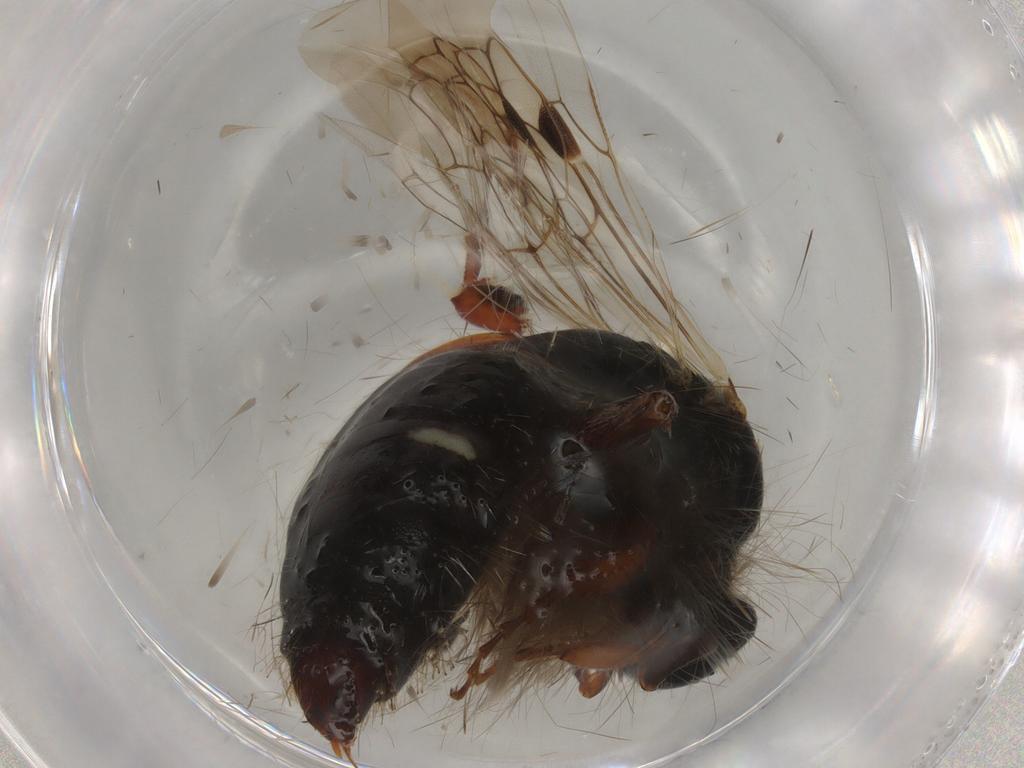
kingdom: Animalia
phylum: Arthropoda
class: Insecta
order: Hymenoptera
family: Thynnidae
